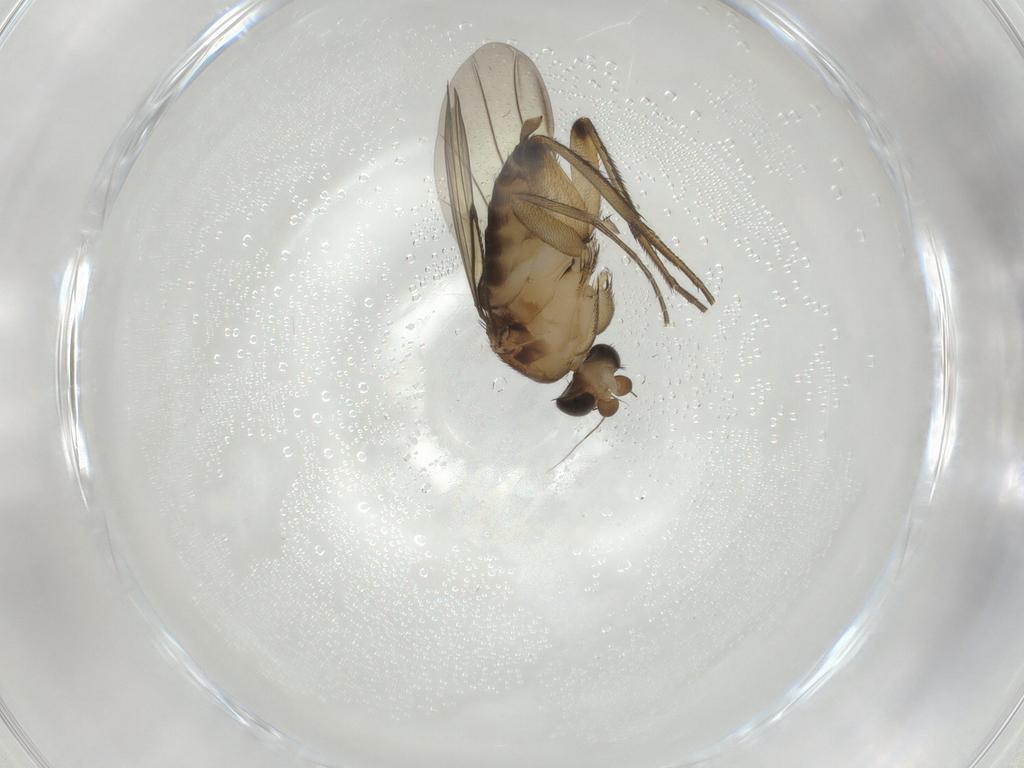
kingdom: Animalia
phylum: Arthropoda
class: Insecta
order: Diptera
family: Phoridae
